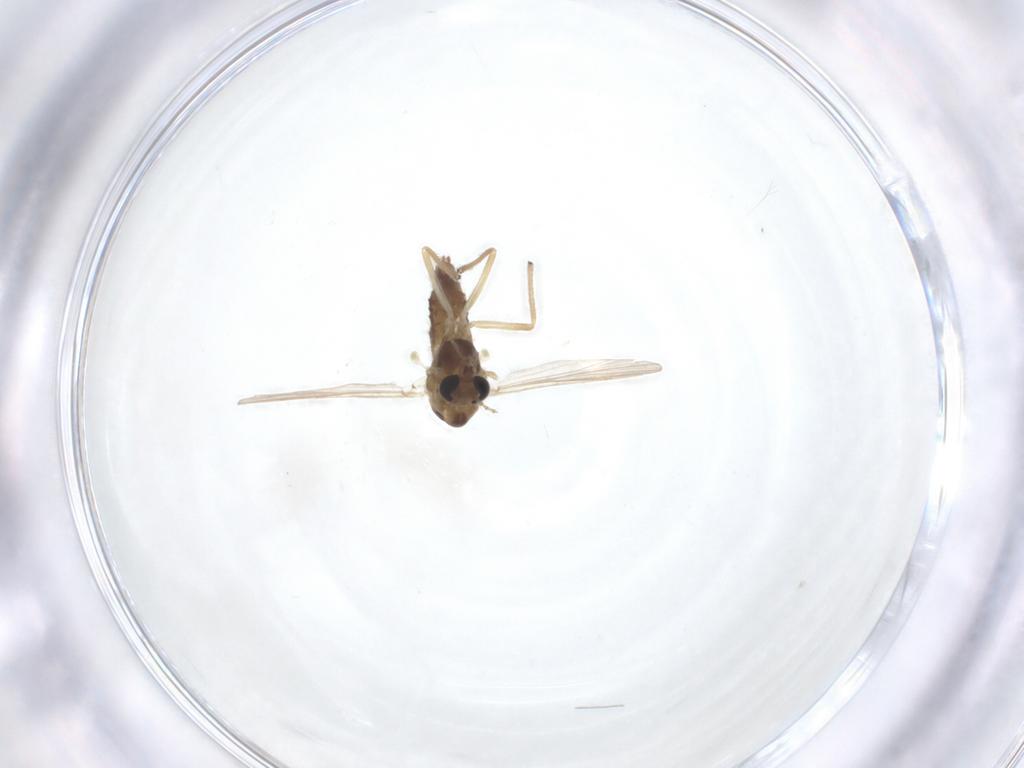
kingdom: Animalia
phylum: Arthropoda
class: Insecta
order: Diptera
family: Chironomidae
